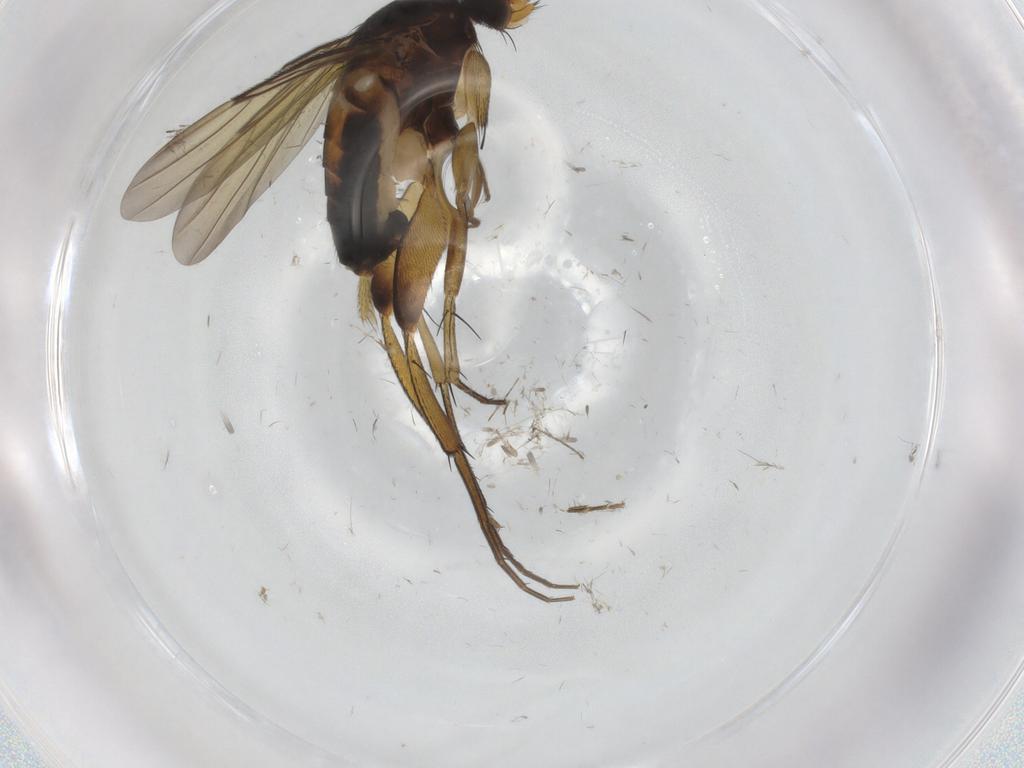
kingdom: Animalia
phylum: Arthropoda
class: Insecta
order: Diptera
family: Phoridae
